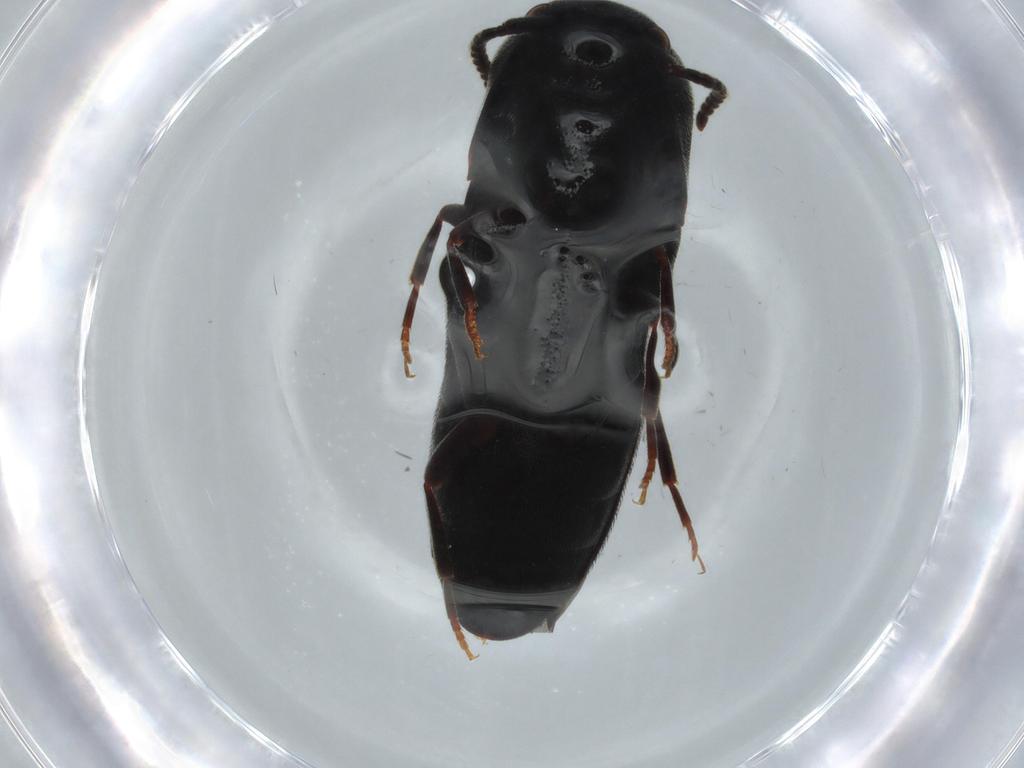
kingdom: Animalia
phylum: Arthropoda
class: Insecta
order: Coleoptera
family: Eucnemidae
